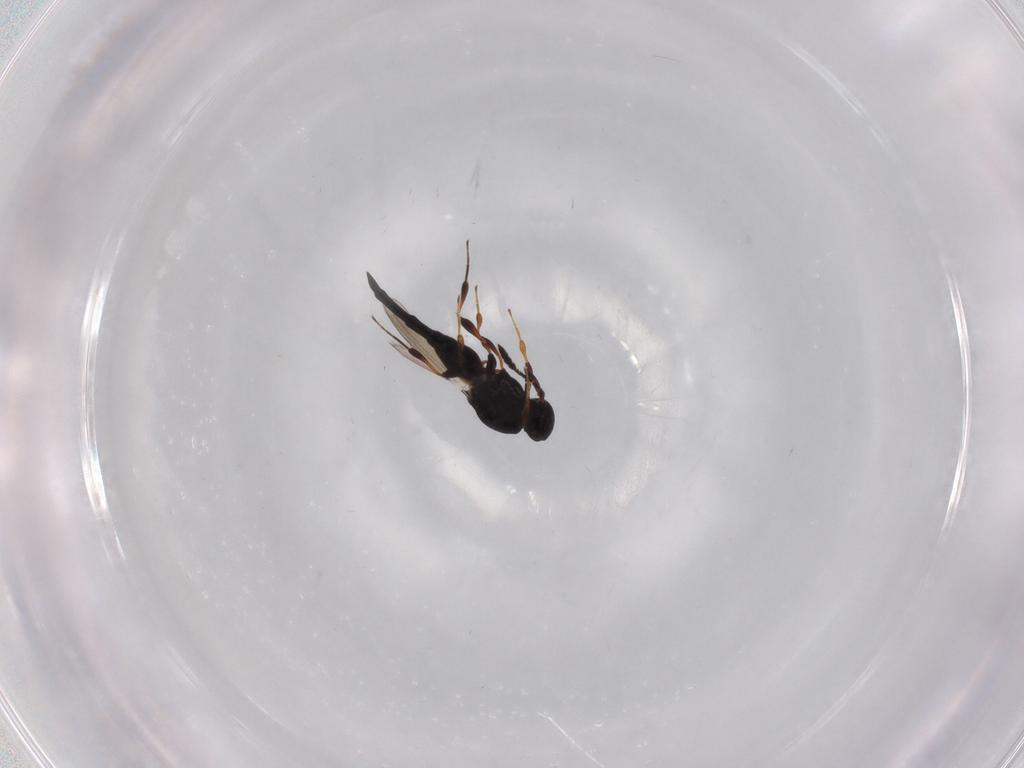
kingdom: Animalia
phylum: Arthropoda
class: Insecta
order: Hymenoptera
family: Platygastridae
